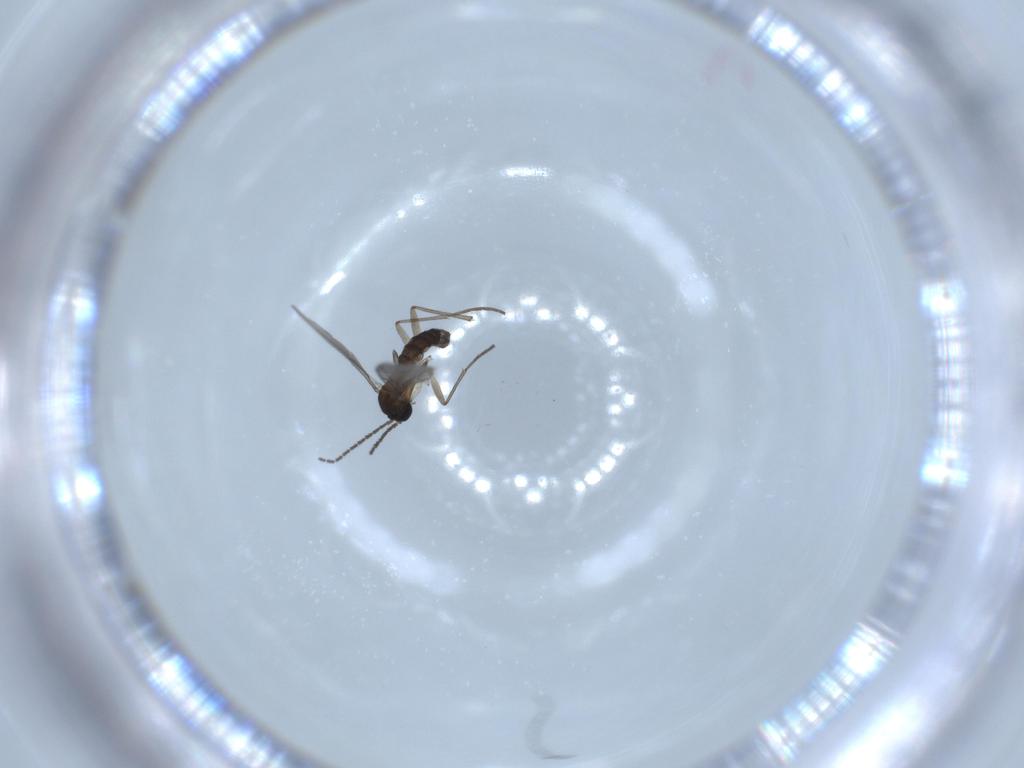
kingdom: Animalia
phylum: Arthropoda
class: Insecta
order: Diptera
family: Sciaridae
